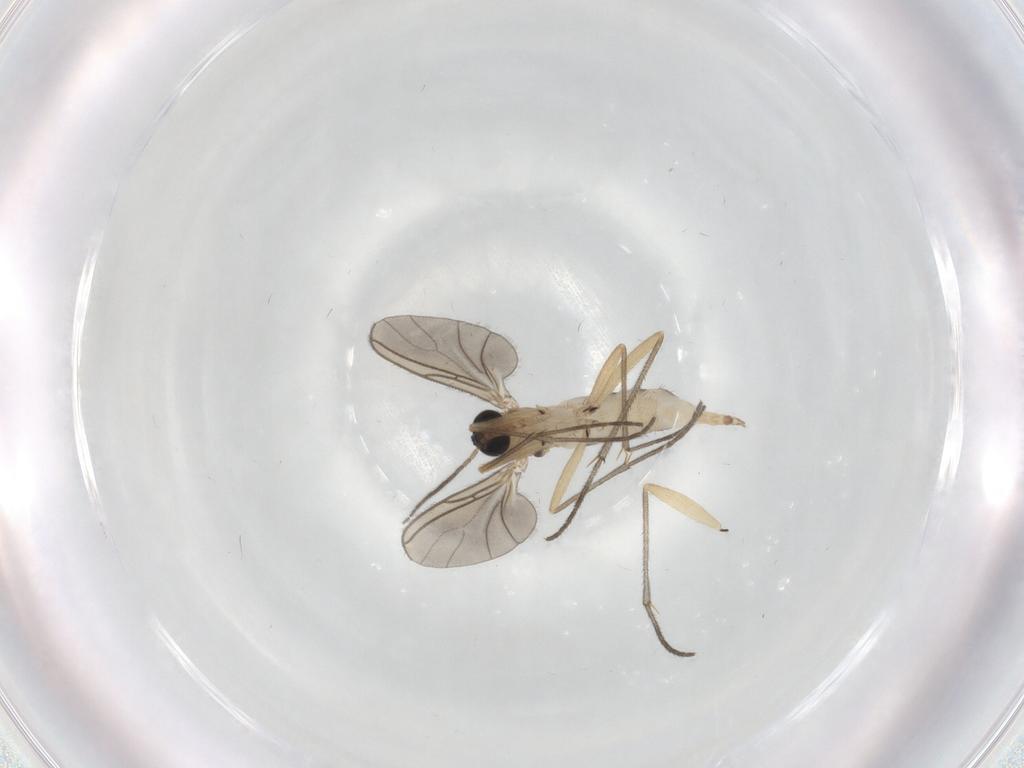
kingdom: Animalia
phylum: Arthropoda
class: Insecta
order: Diptera
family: Sciaridae
